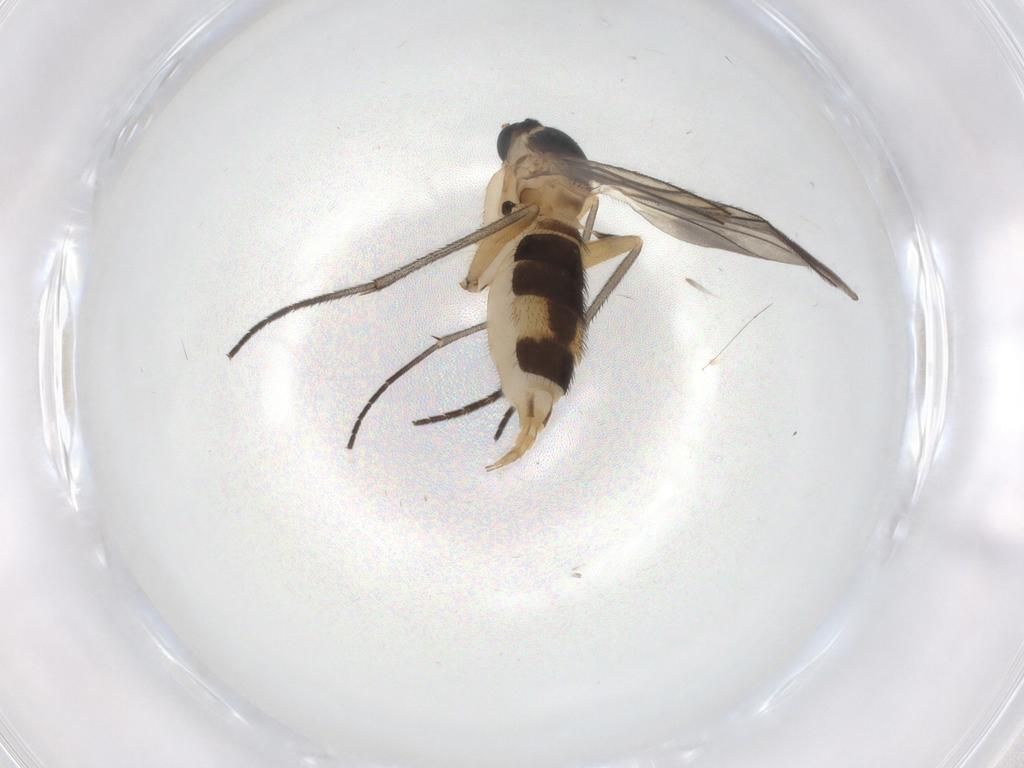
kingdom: Animalia
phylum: Arthropoda
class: Insecta
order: Diptera
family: Sciaridae
